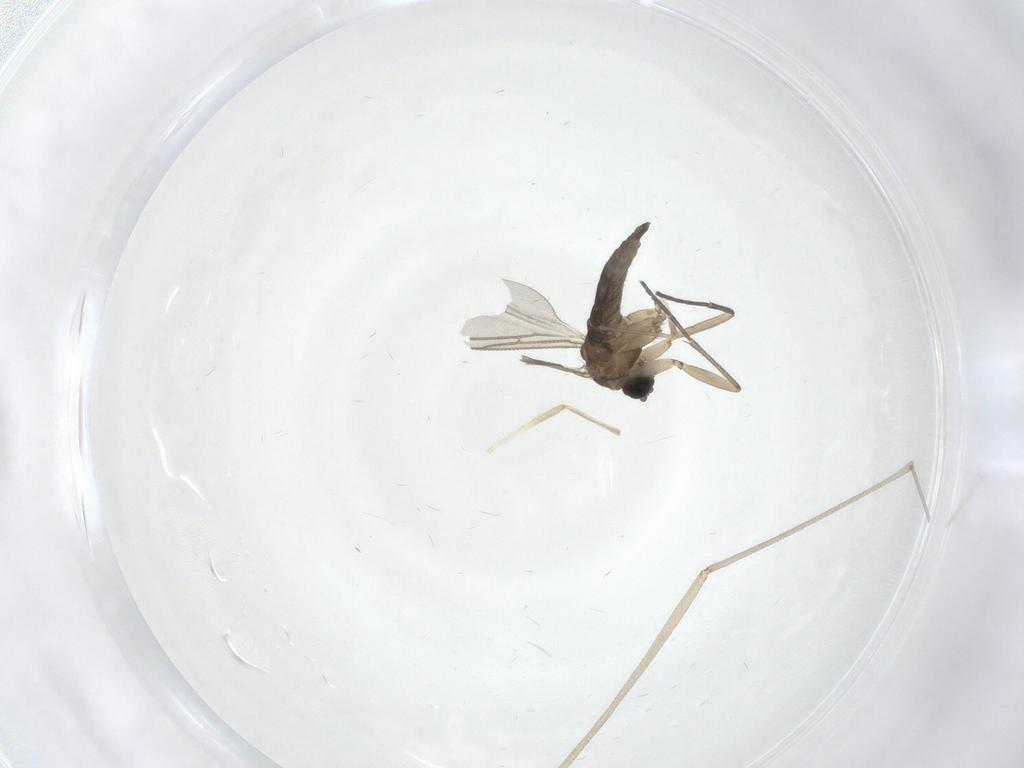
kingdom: Animalia
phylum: Arthropoda
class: Insecta
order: Diptera
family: Sciaridae
